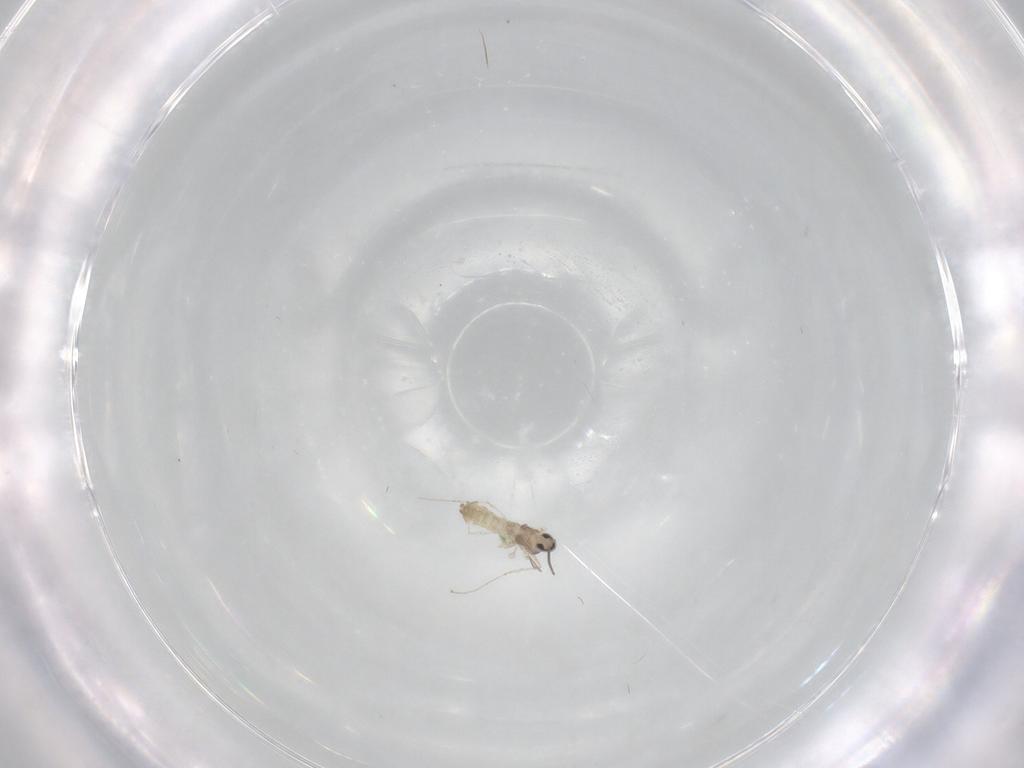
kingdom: Animalia
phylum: Arthropoda
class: Insecta
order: Diptera
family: Cecidomyiidae
